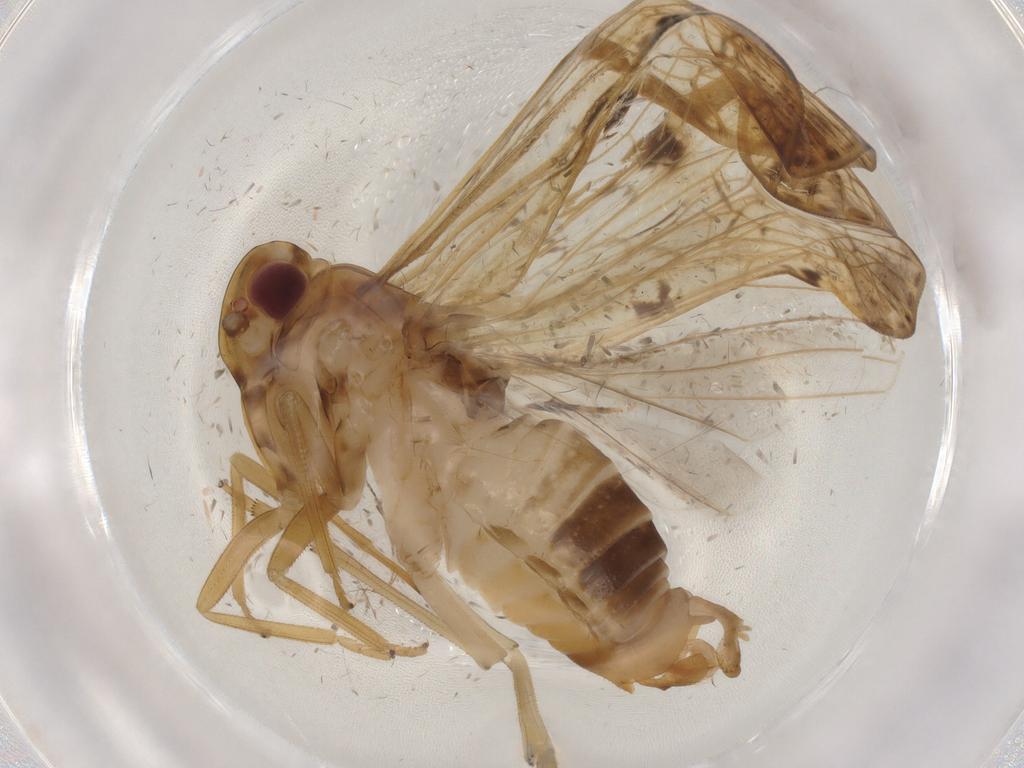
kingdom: Animalia
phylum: Arthropoda
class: Insecta
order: Hemiptera
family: Cixiidae
